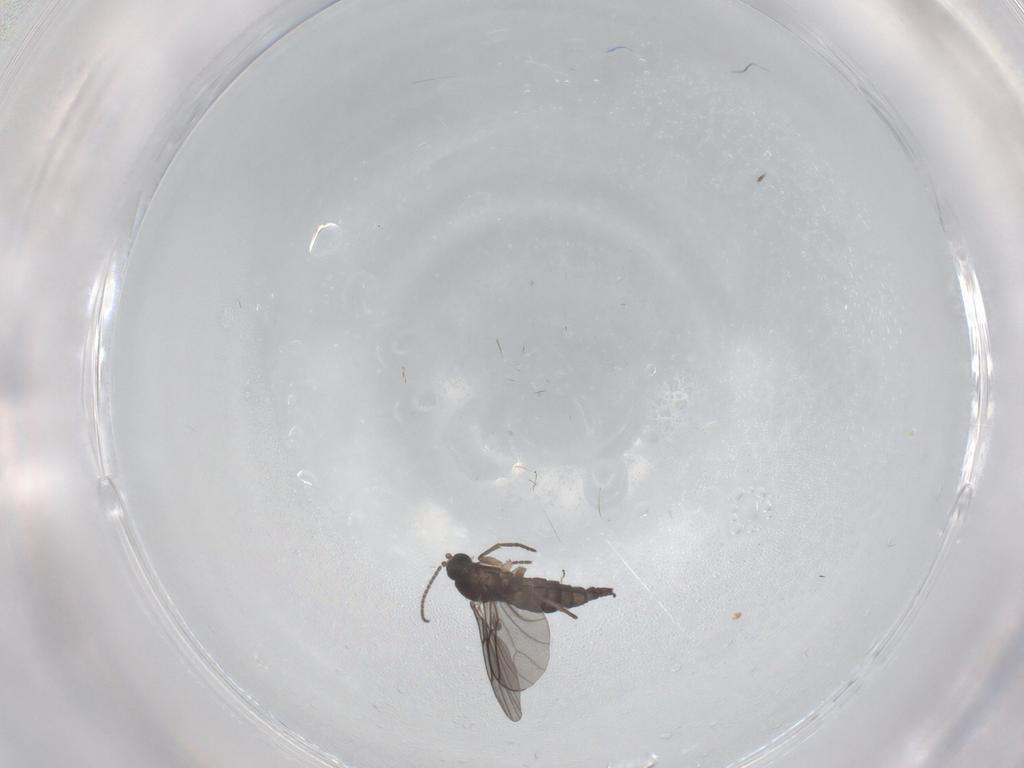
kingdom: Animalia
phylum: Arthropoda
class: Insecta
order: Diptera
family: Sciaridae
